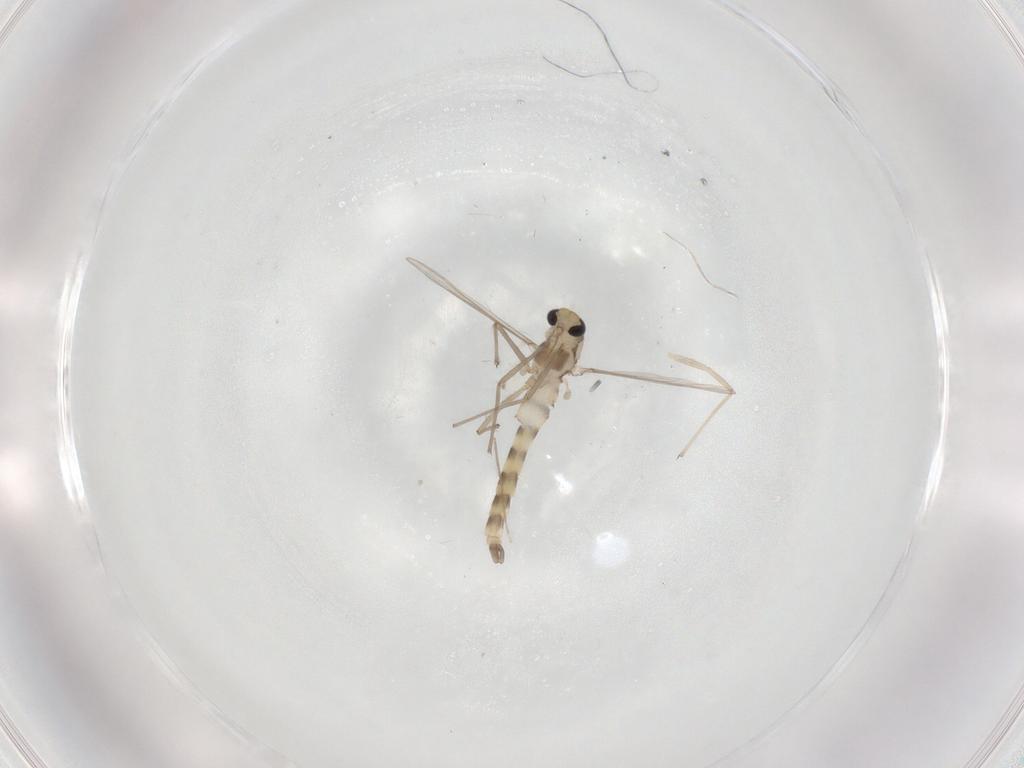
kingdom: Animalia
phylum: Arthropoda
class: Insecta
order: Diptera
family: Chironomidae
